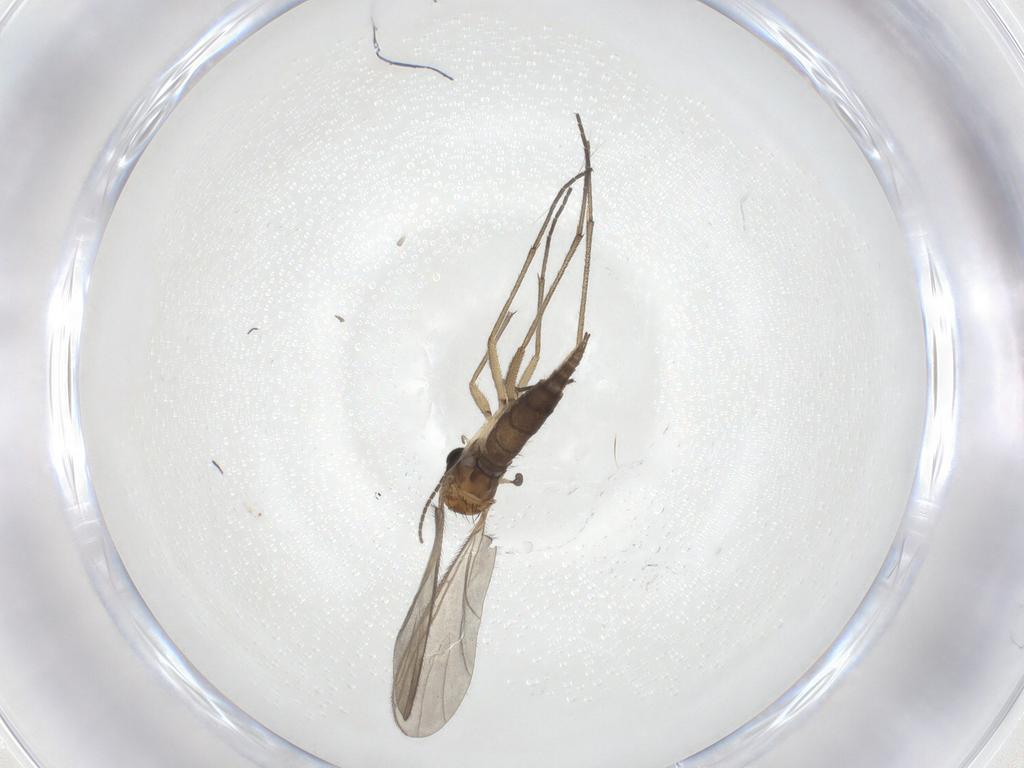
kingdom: Animalia
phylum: Arthropoda
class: Insecta
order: Diptera
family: Sciaridae
